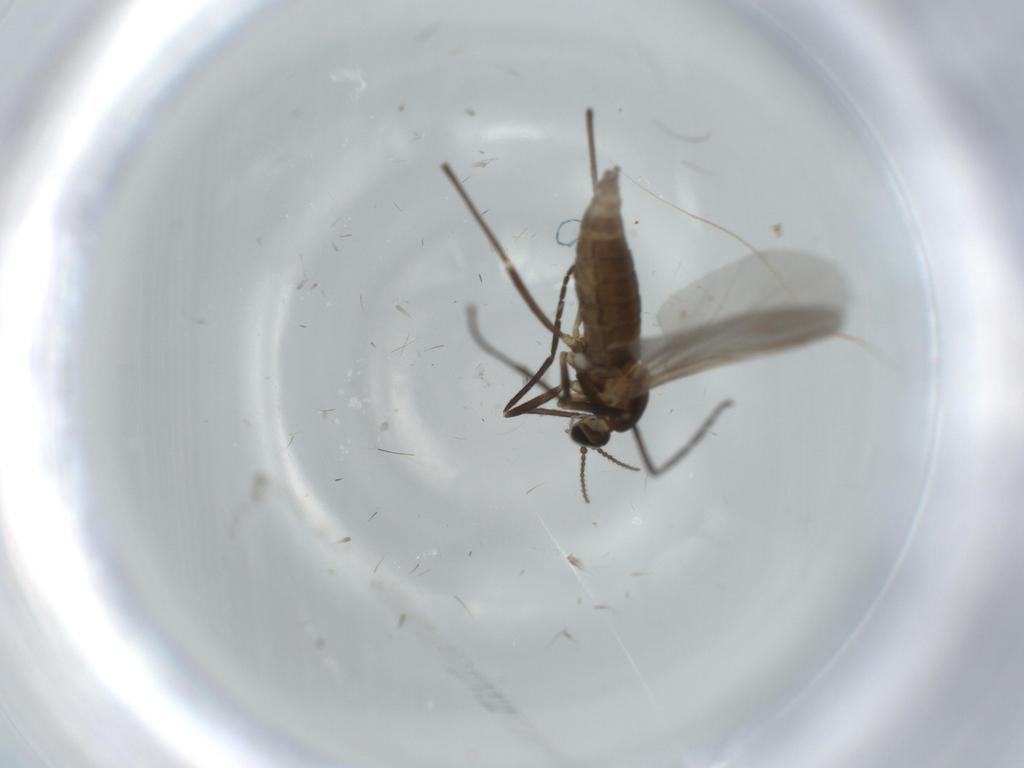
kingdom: Animalia
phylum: Arthropoda
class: Insecta
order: Diptera
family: Cecidomyiidae
